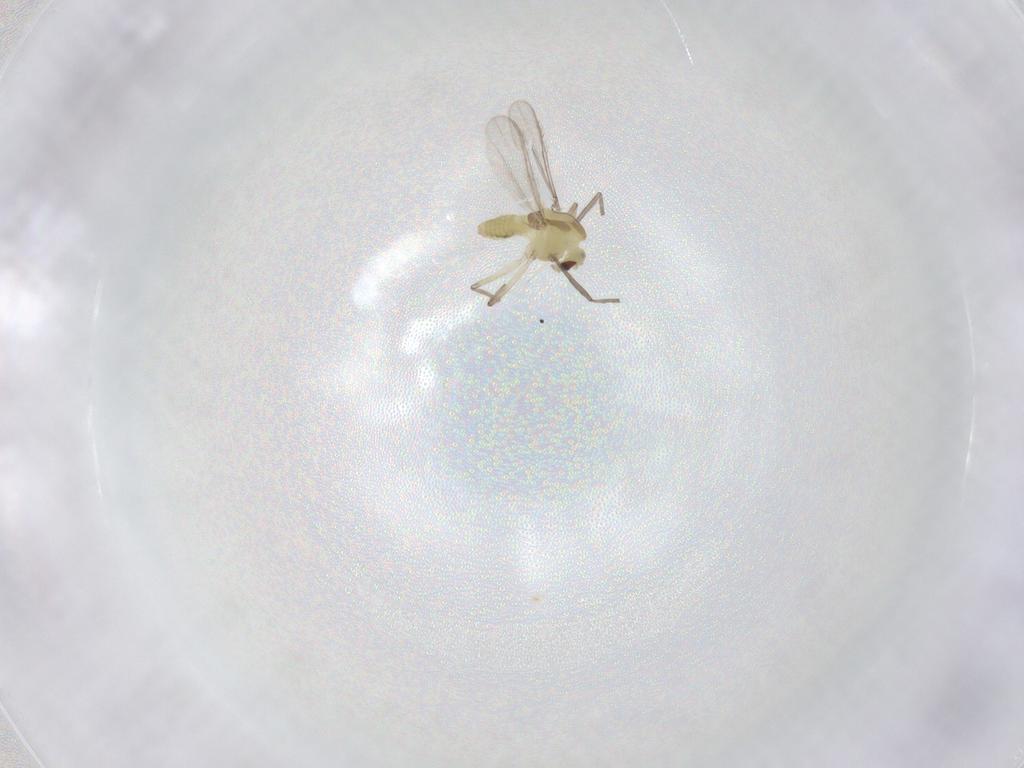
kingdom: Animalia
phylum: Arthropoda
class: Insecta
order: Diptera
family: Chironomidae
